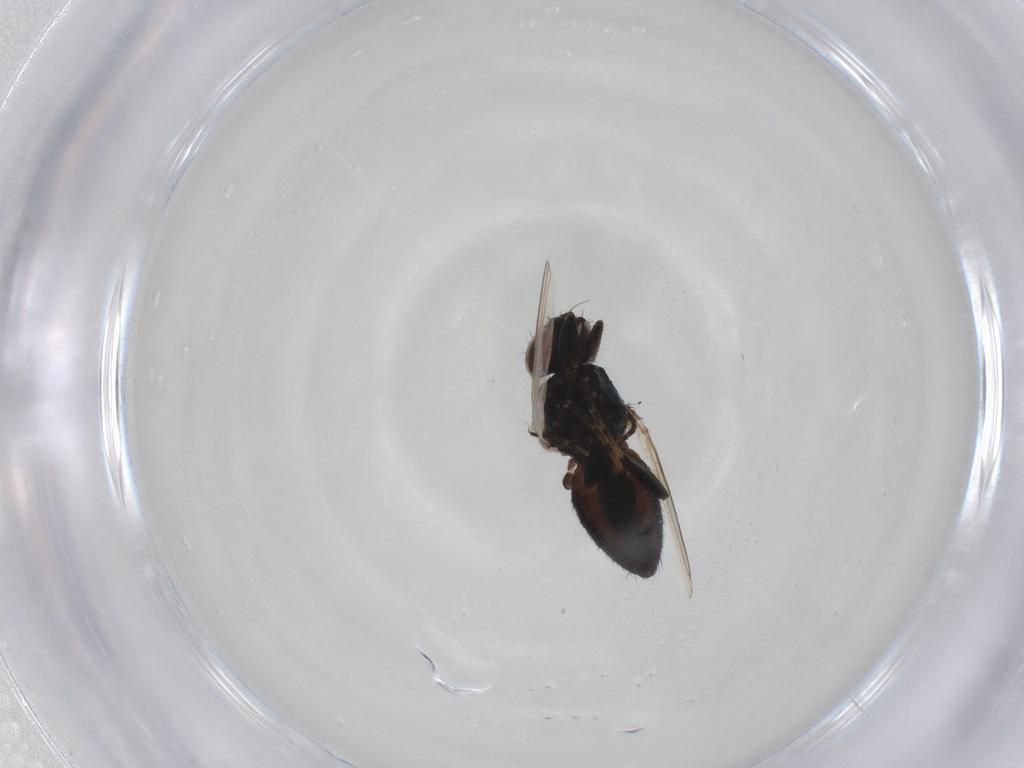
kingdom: Animalia
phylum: Arthropoda
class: Insecta
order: Diptera
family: Milichiidae
